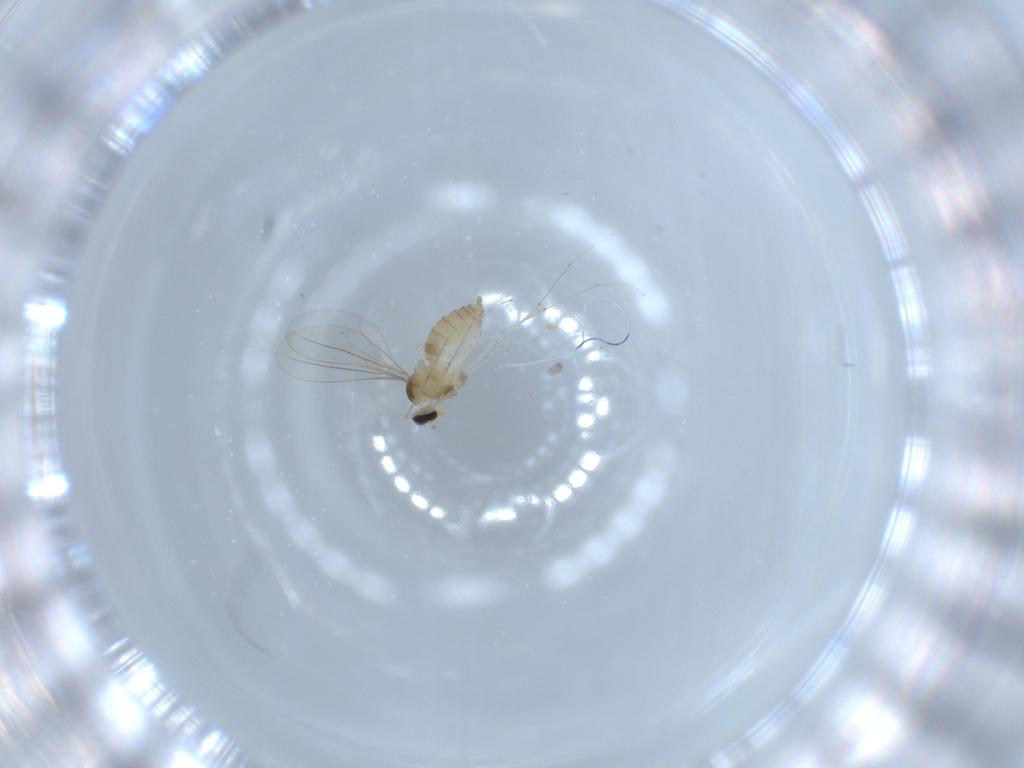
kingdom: Animalia
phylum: Arthropoda
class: Insecta
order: Diptera
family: Cecidomyiidae
